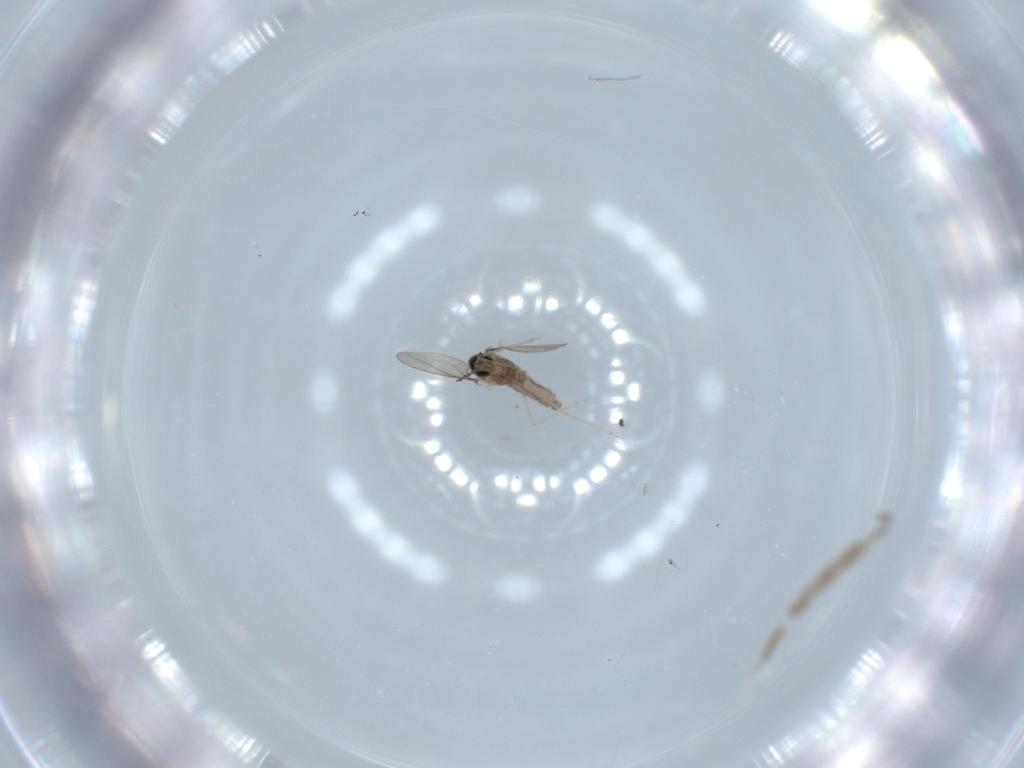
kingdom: Animalia
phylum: Arthropoda
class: Insecta
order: Diptera
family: Cecidomyiidae
